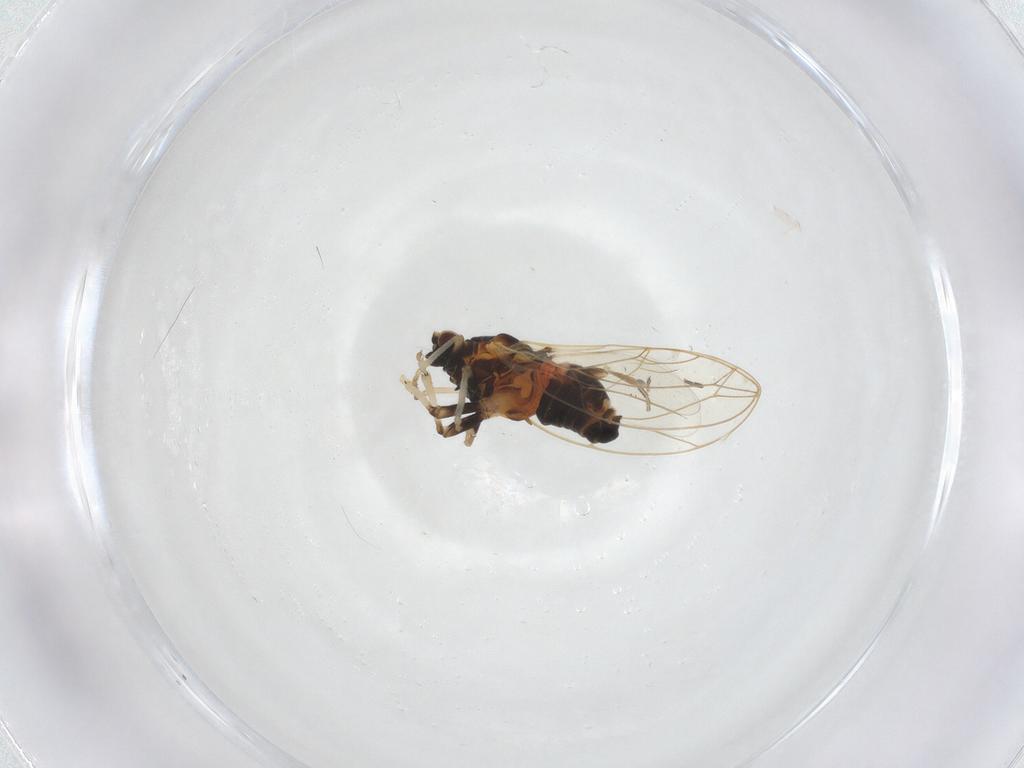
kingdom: Animalia
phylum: Arthropoda
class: Insecta
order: Hemiptera
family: Triozidae
